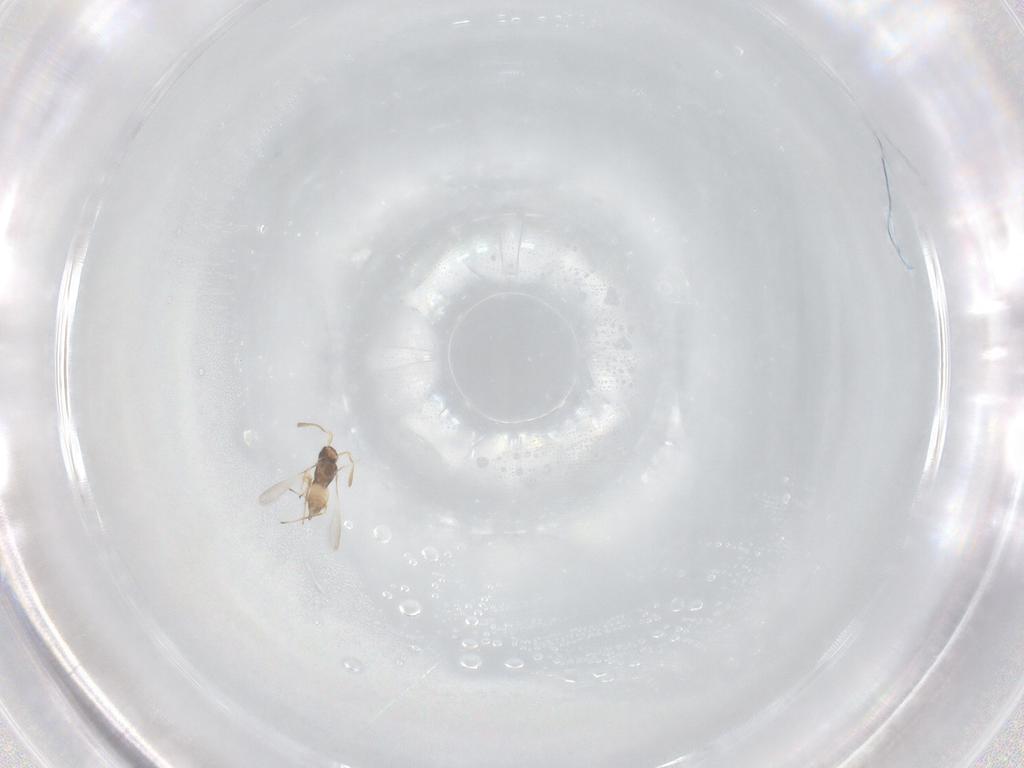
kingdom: Animalia
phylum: Arthropoda
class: Insecta
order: Hymenoptera
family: Mymaridae
